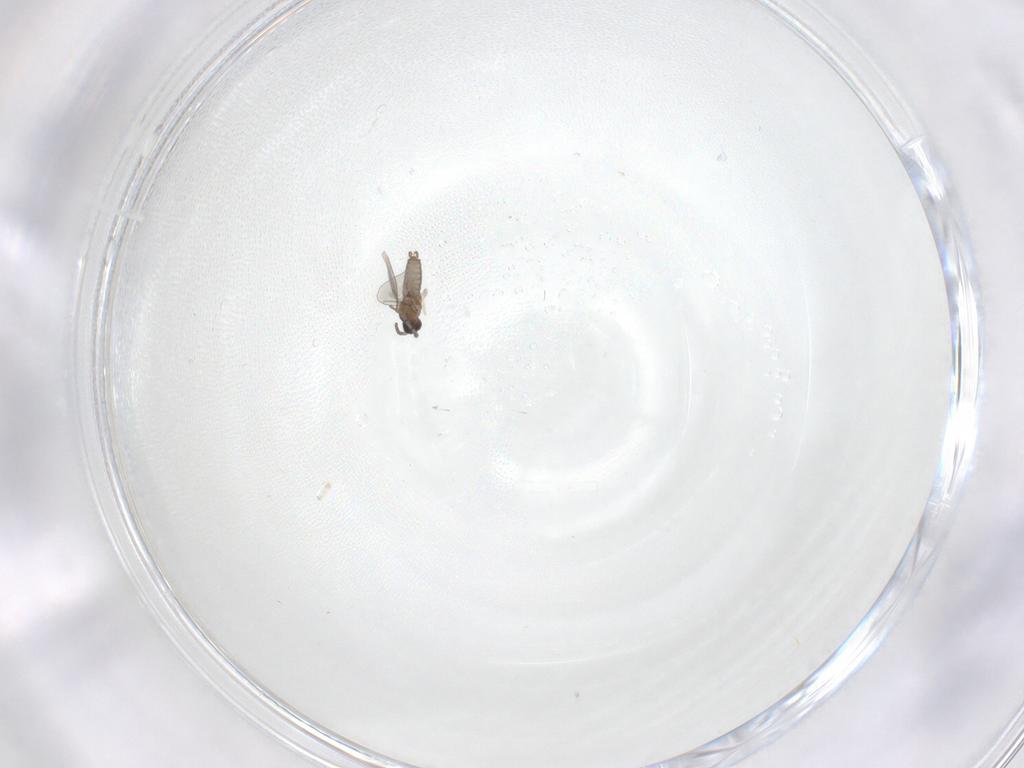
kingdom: Animalia
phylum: Arthropoda
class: Insecta
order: Diptera
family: Cecidomyiidae
